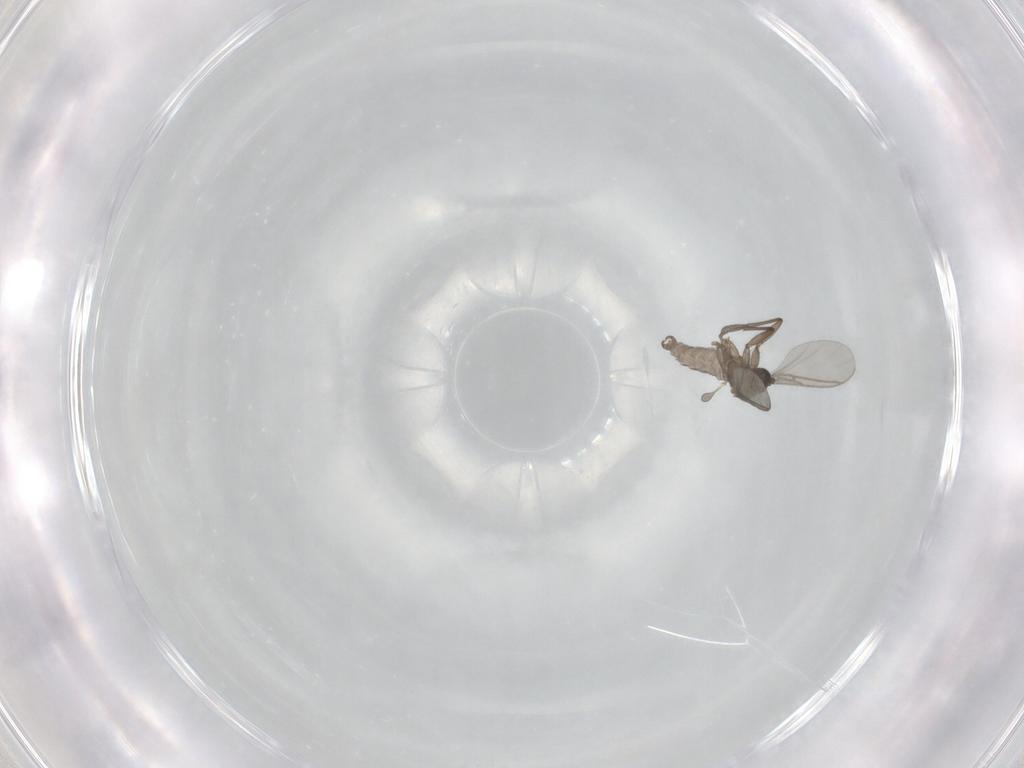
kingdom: Animalia
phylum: Arthropoda
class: Insecta
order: Diptera
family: Sciaridae
